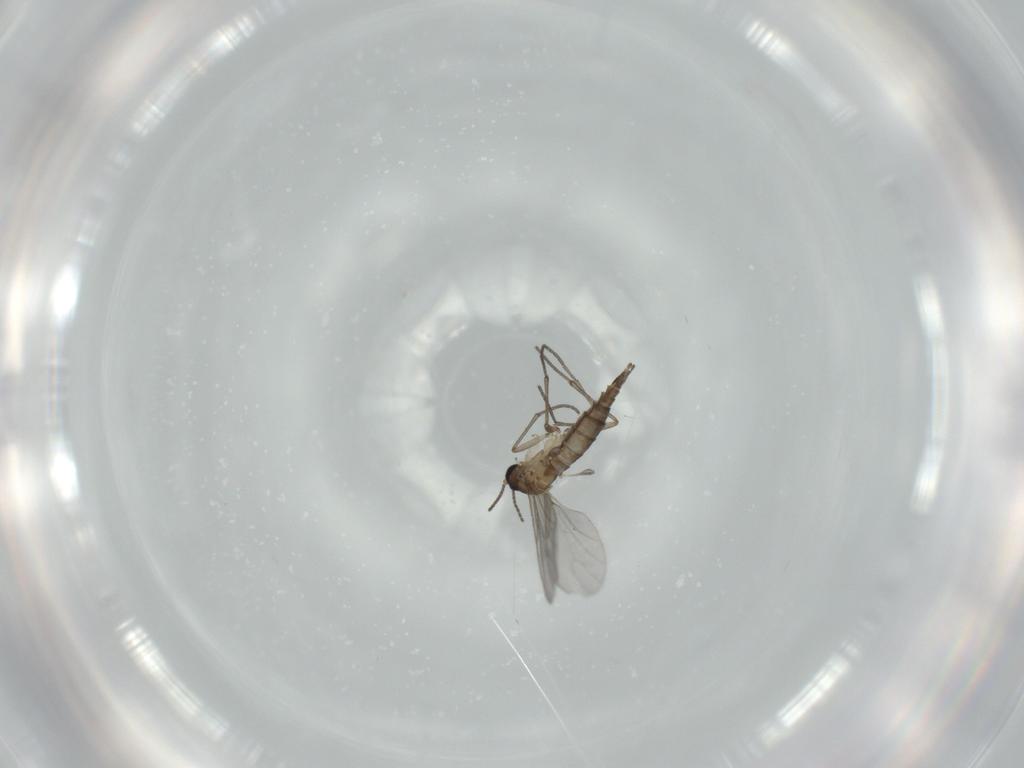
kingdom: Animalia
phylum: Arthropoda
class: Insecta
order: Diptera
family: Sciaridae
